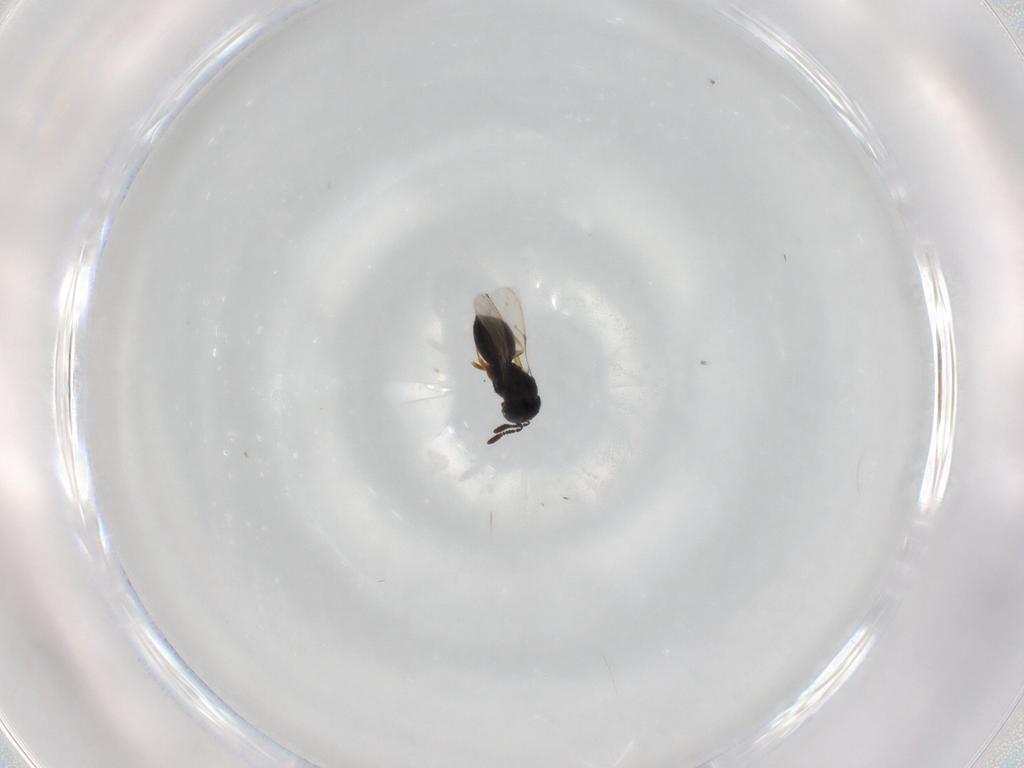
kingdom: Animalia
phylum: Arthropoda
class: Insecta
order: Hymenoptera
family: Scelionidae
